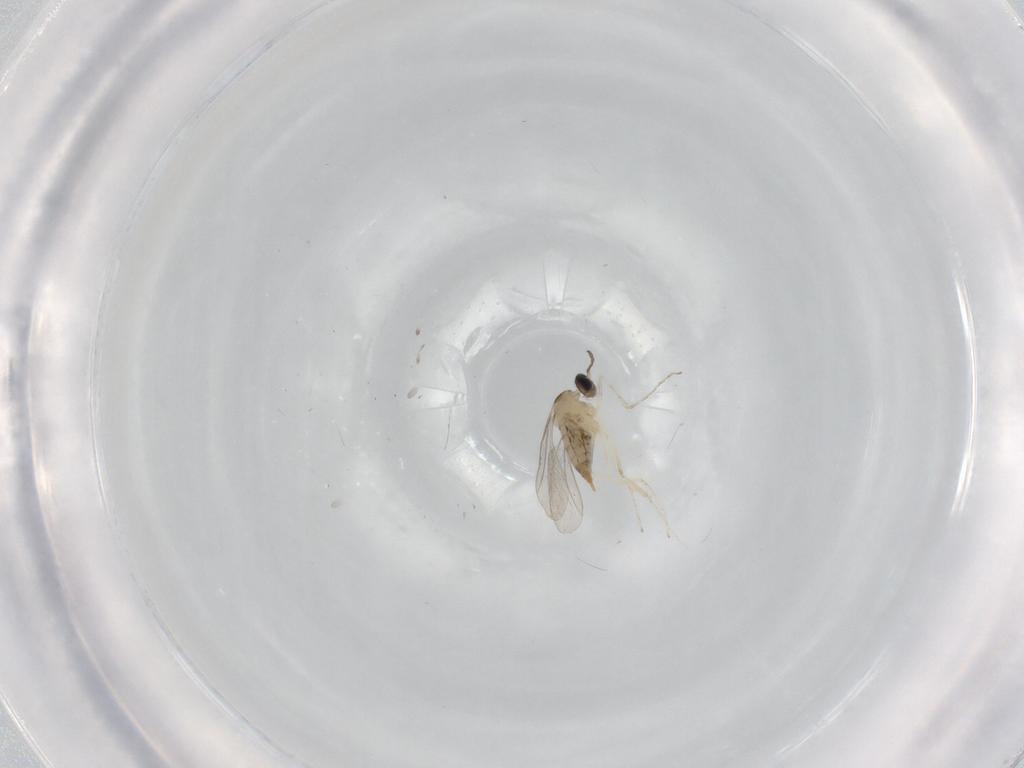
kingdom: Animalia
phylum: Arthropoda
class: Insecta
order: Diptera
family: Cecidomyiidae
